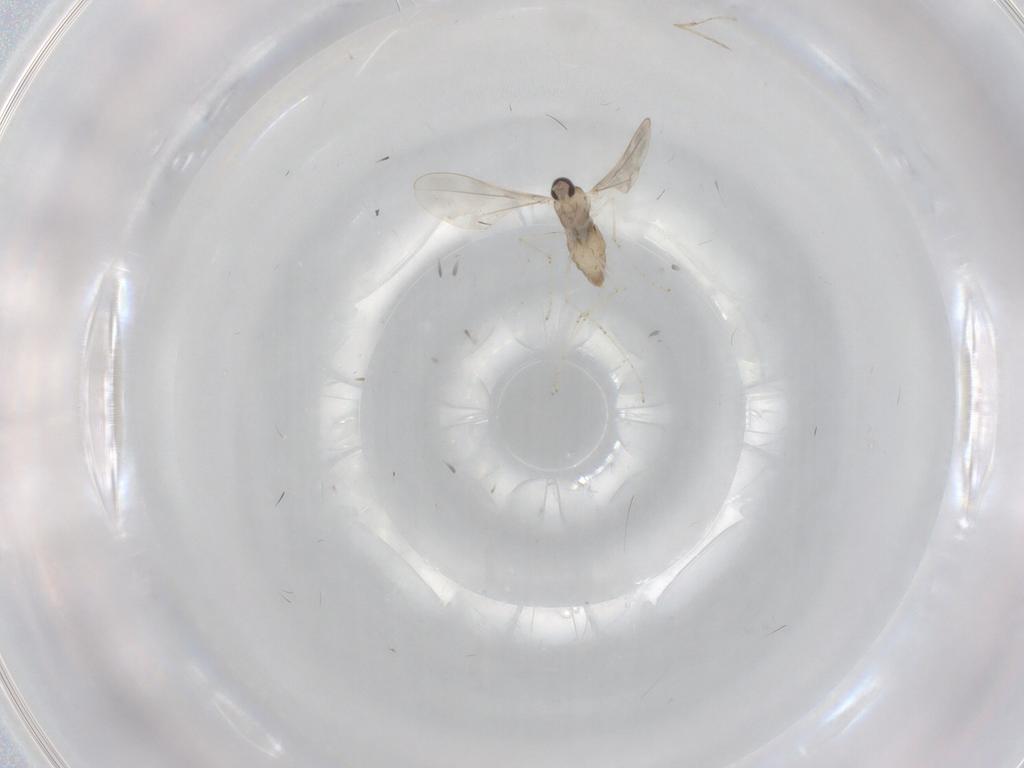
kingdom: Animalia
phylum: Arthropoda
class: Insecta
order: Diptera
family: Cecidomyiidae
